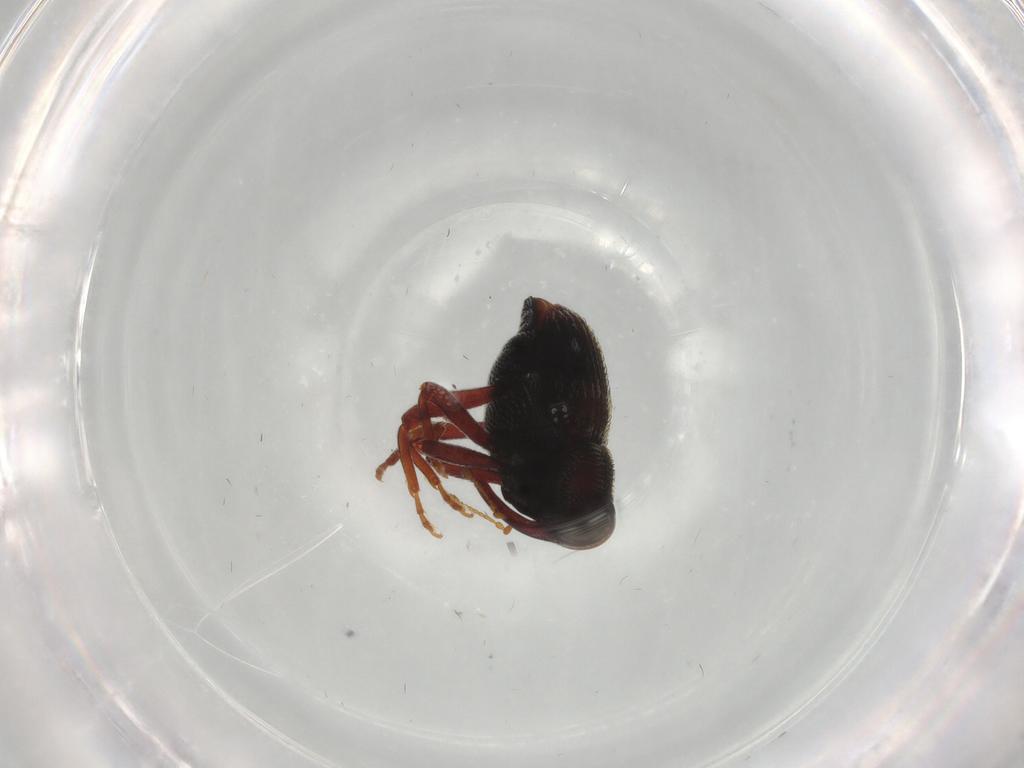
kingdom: Animalia
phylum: Arthropoda
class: Insecta
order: Coleoptera
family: Curculionidae
